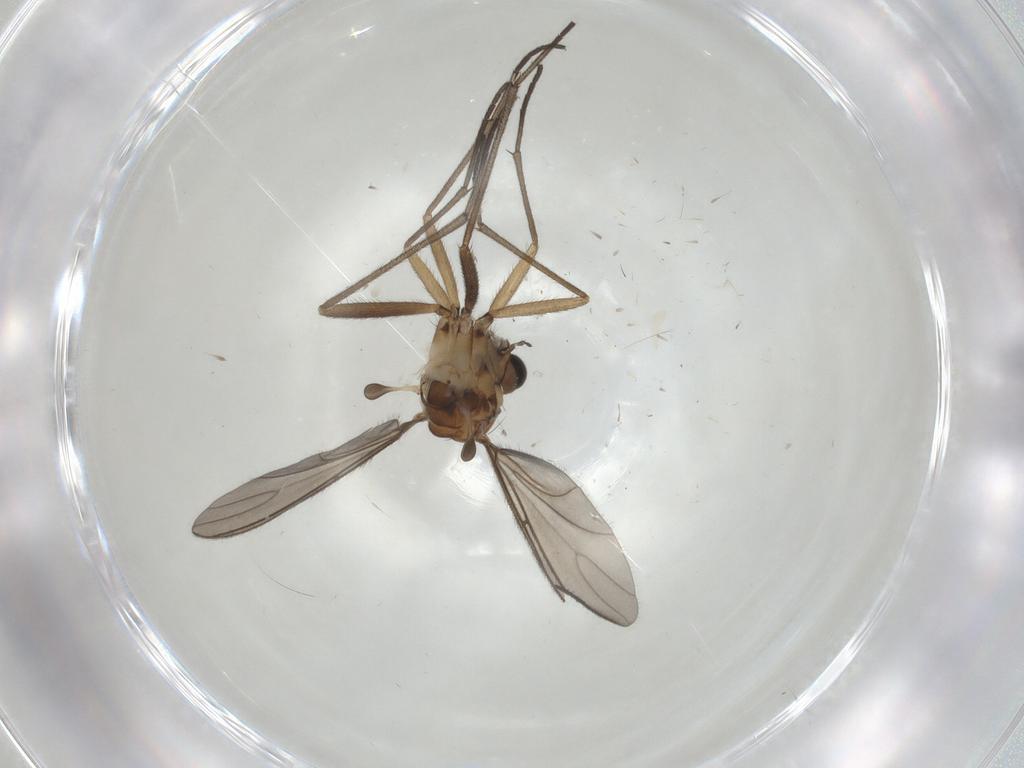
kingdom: Animalia
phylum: Arthropoda
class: Insecta
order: Diptera
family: Sciaridae
